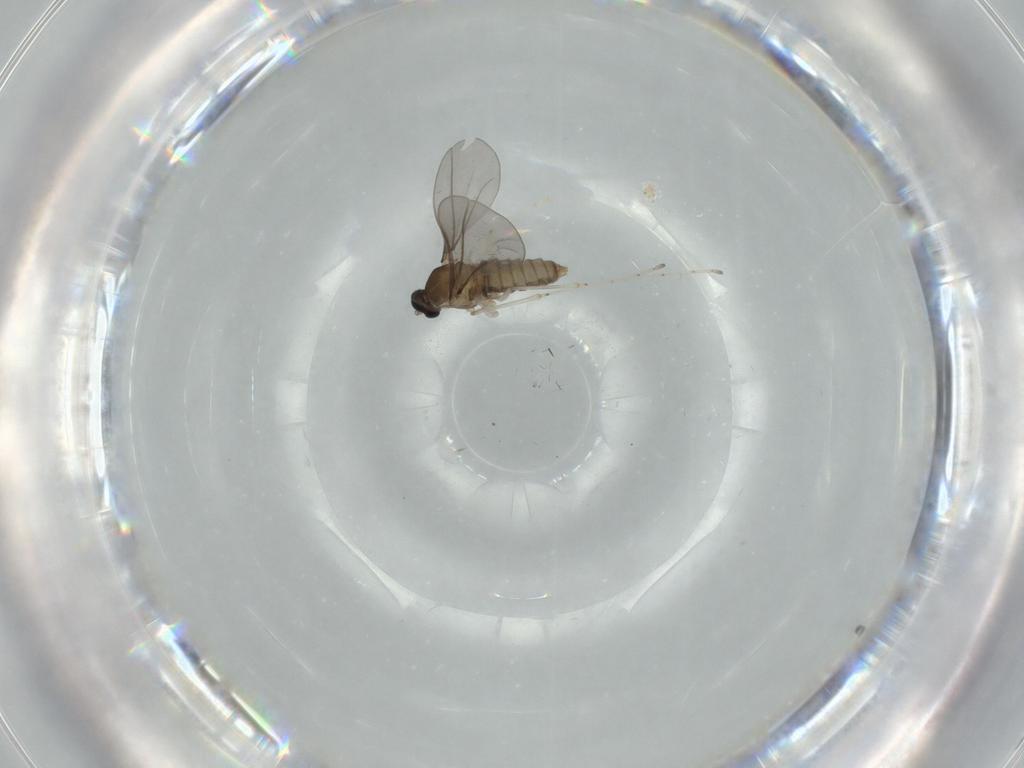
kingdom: Animalia
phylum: Arthropoda
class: Insecta
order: Diptera
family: Cecidomyiidae
